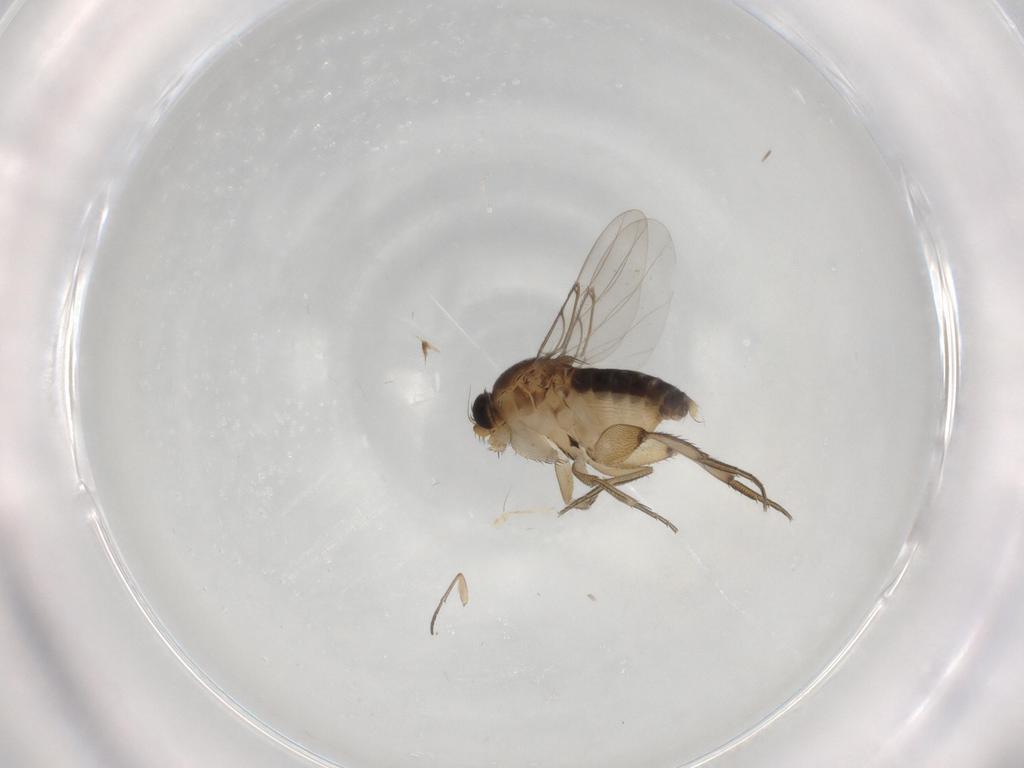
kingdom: Animalia
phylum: Arthropoda
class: Insecta
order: Diptera
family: Sciaridae
